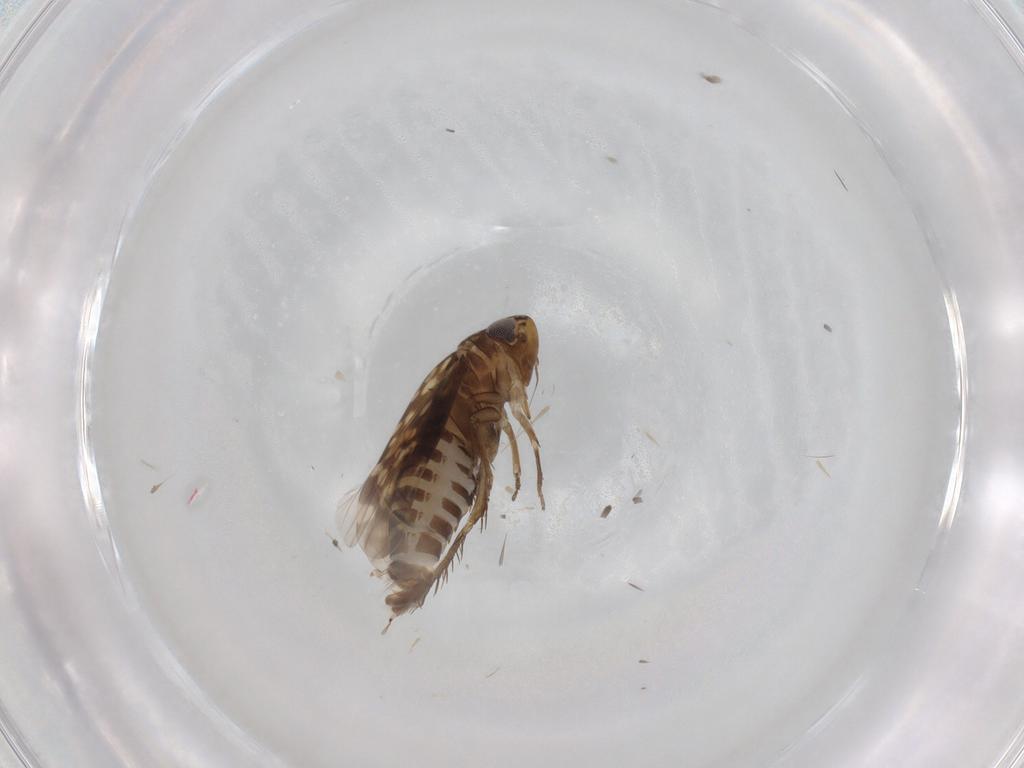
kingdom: Animalia
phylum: Arthropoda
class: Insecta
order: Hemiptera
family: Cicadellidae
